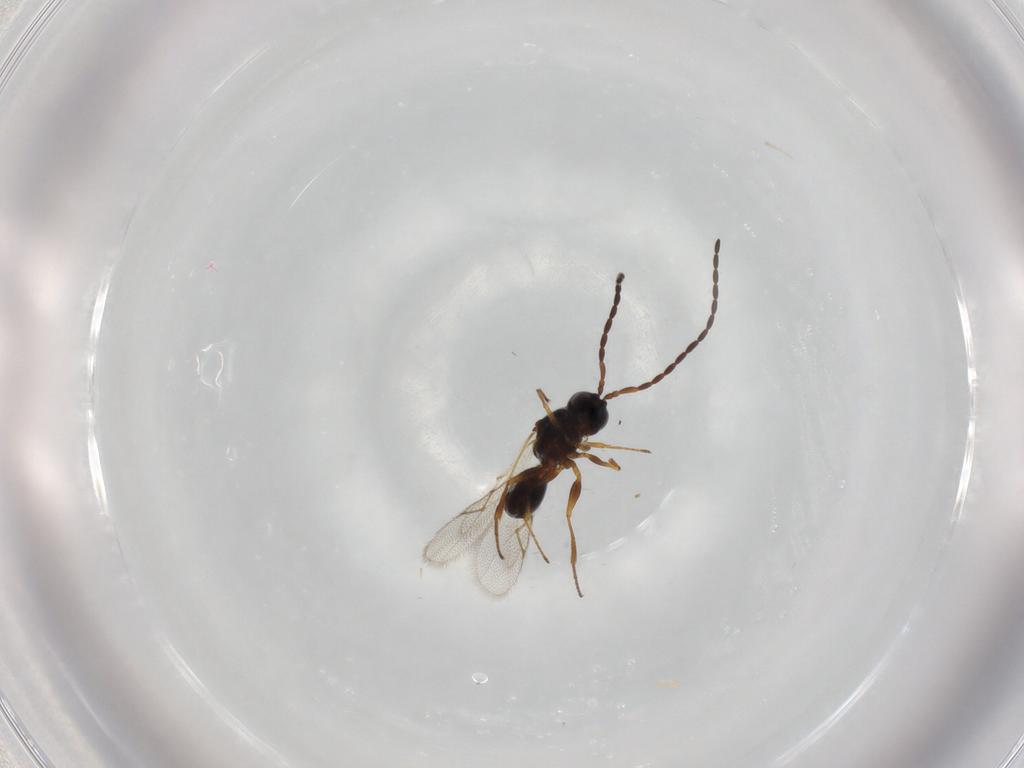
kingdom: Animalia
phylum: Arthropoda
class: Insecta
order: Hymenoptera
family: Figitidae
